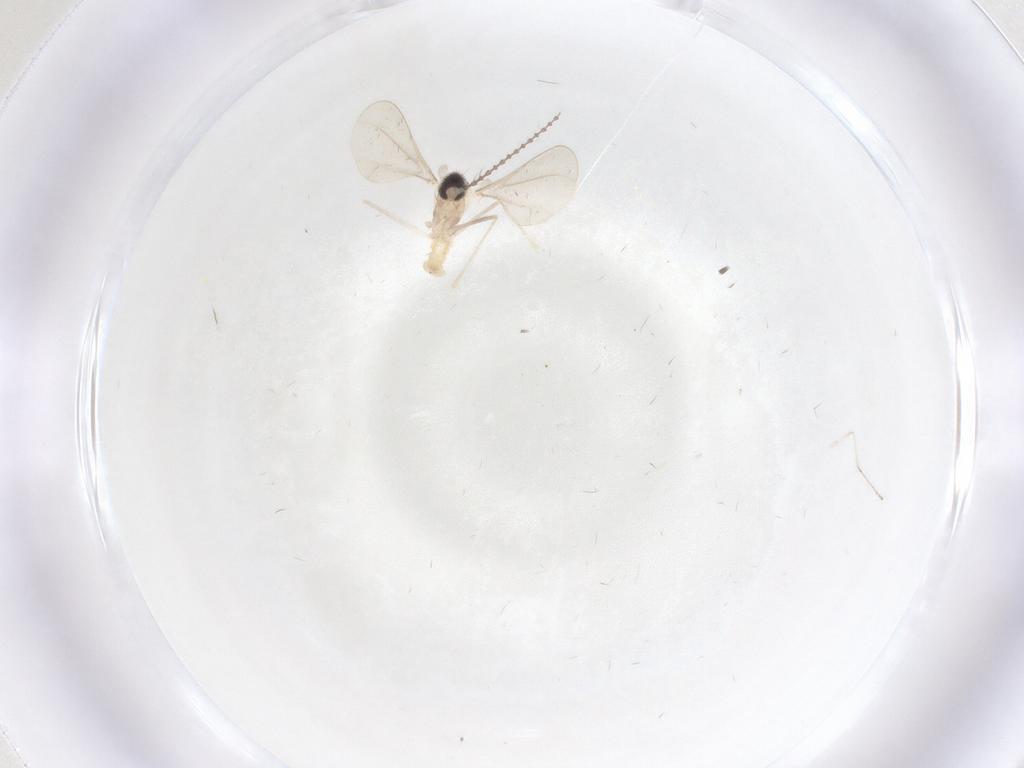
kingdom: Animalia
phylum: Arthropoda
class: Insecta
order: Diptera
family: Cecidomyiidae
